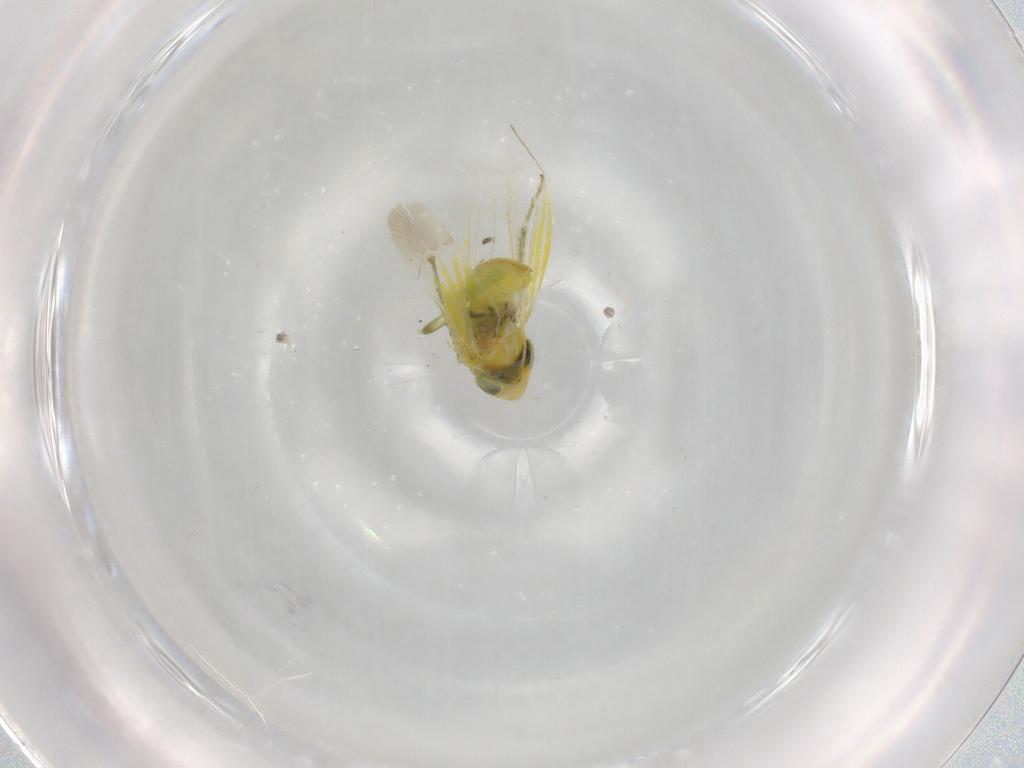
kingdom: Animalia
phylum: Arthropoda
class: Insecta
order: Hemiptera
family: Cicadellidae
